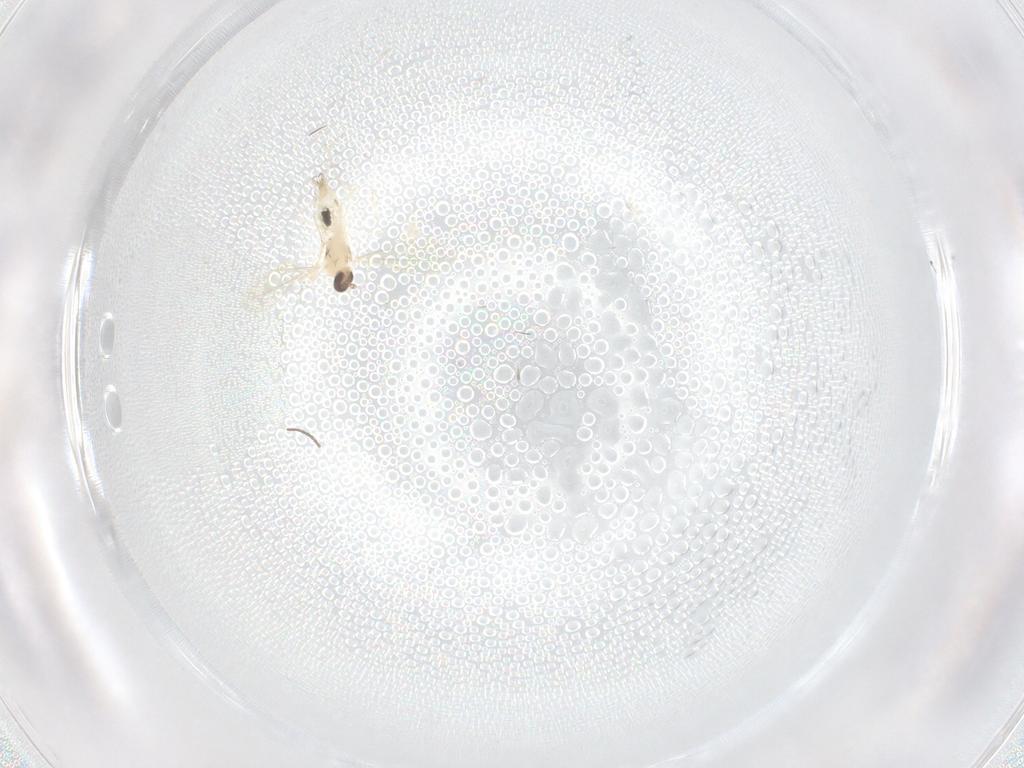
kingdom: Animalia
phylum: Arthropoda
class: Insecta
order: Diptera
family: Cecidomyiidae
